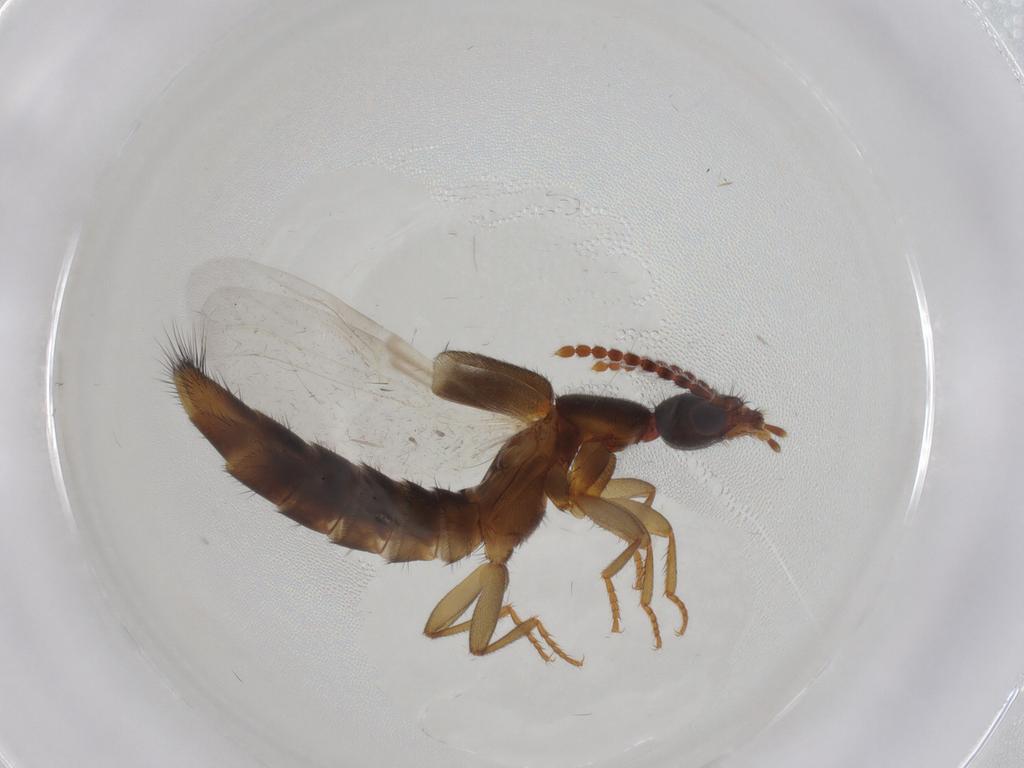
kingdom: Animalia
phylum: Arthropoda
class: Insecta
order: Coleoptera
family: Staphylinidae
